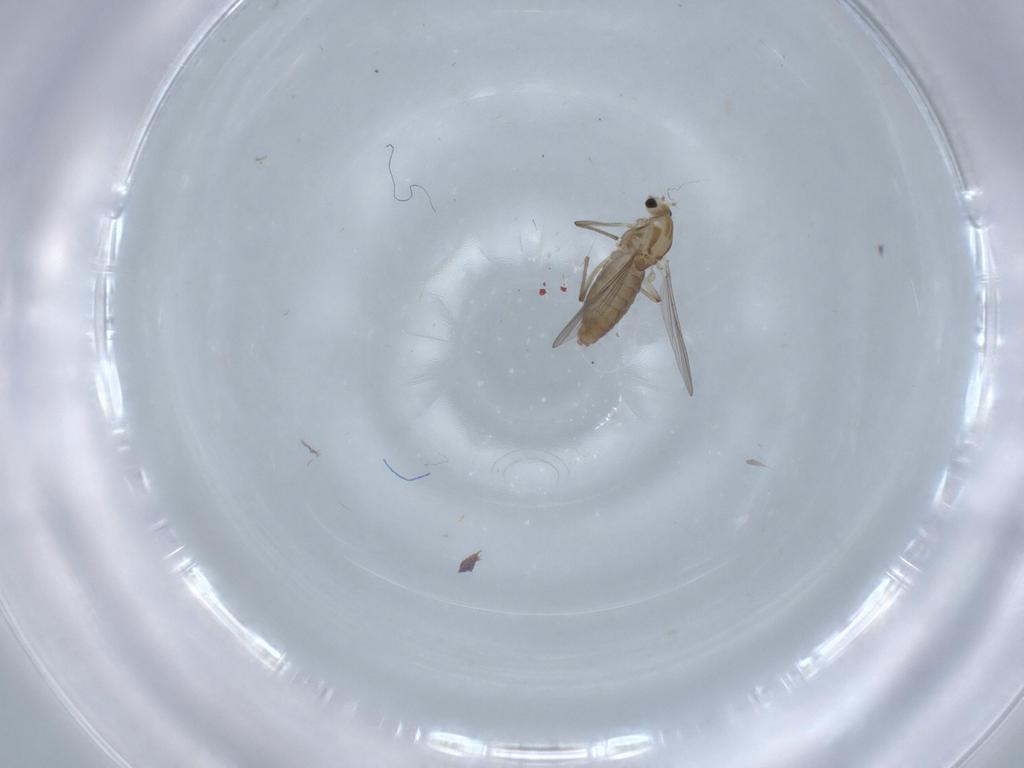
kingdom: Animalia
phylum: Arthropoda
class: Insecta
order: Diptera
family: Chironomidae
